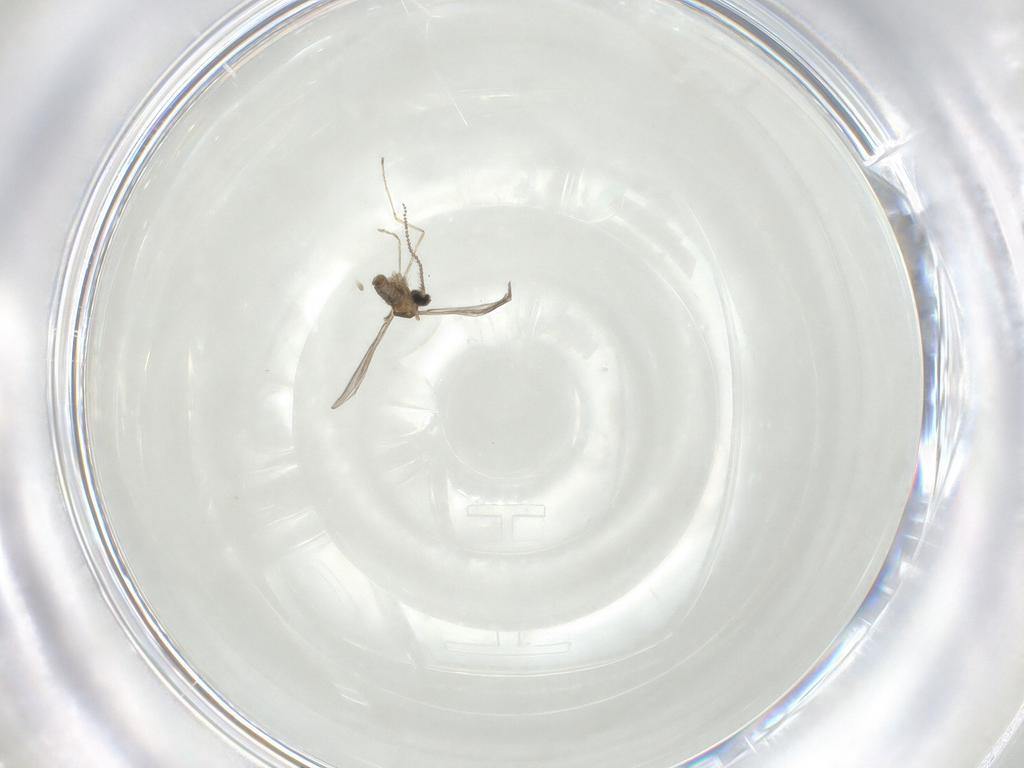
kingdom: Animalia
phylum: Arthropoda
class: Insecta
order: Diptera
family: Cecidomyiidae
